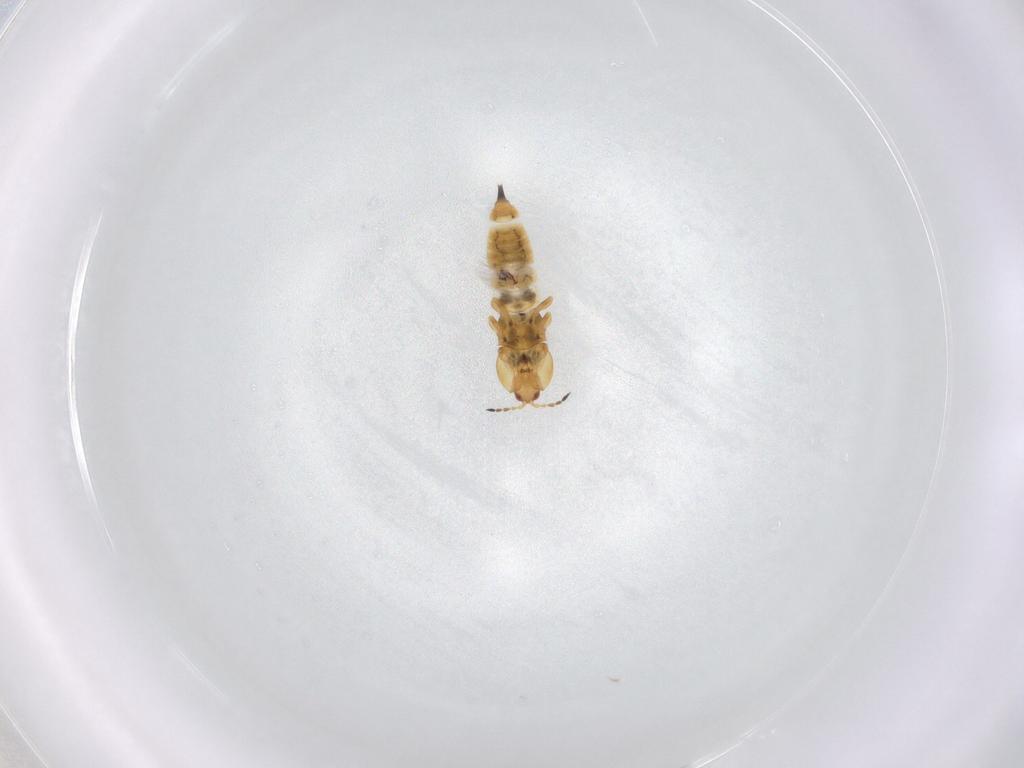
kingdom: Animalia
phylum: Arthropoda
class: Insecta
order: Thysanoptera
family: Phlaeothripidae
